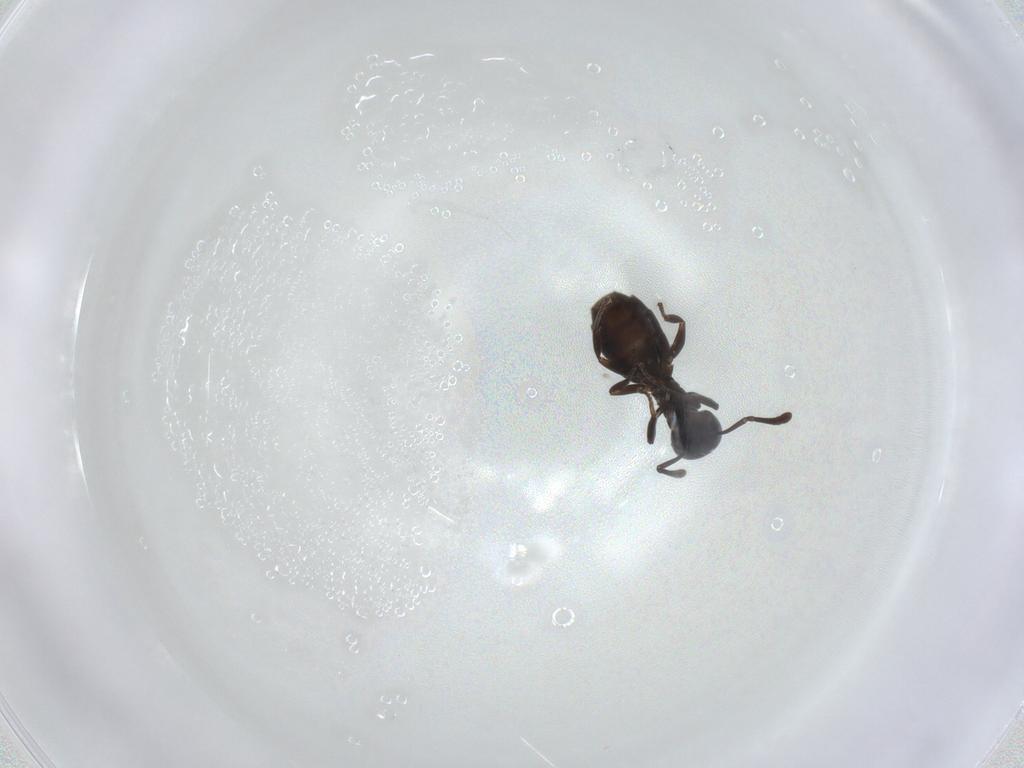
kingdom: Animalia
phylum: Arthropoda
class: Insecta
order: Hymenoptera
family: Formicidae
